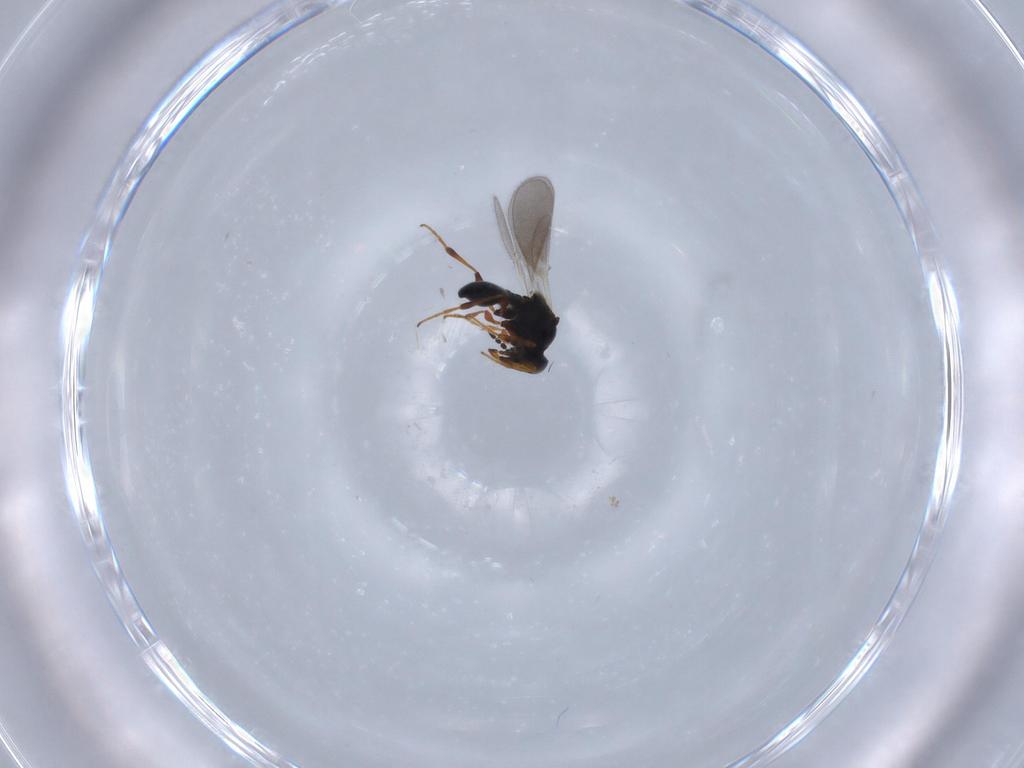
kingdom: Animalia
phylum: Arthropoda
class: Insecta
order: Hymenoptera
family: Platygastridae
